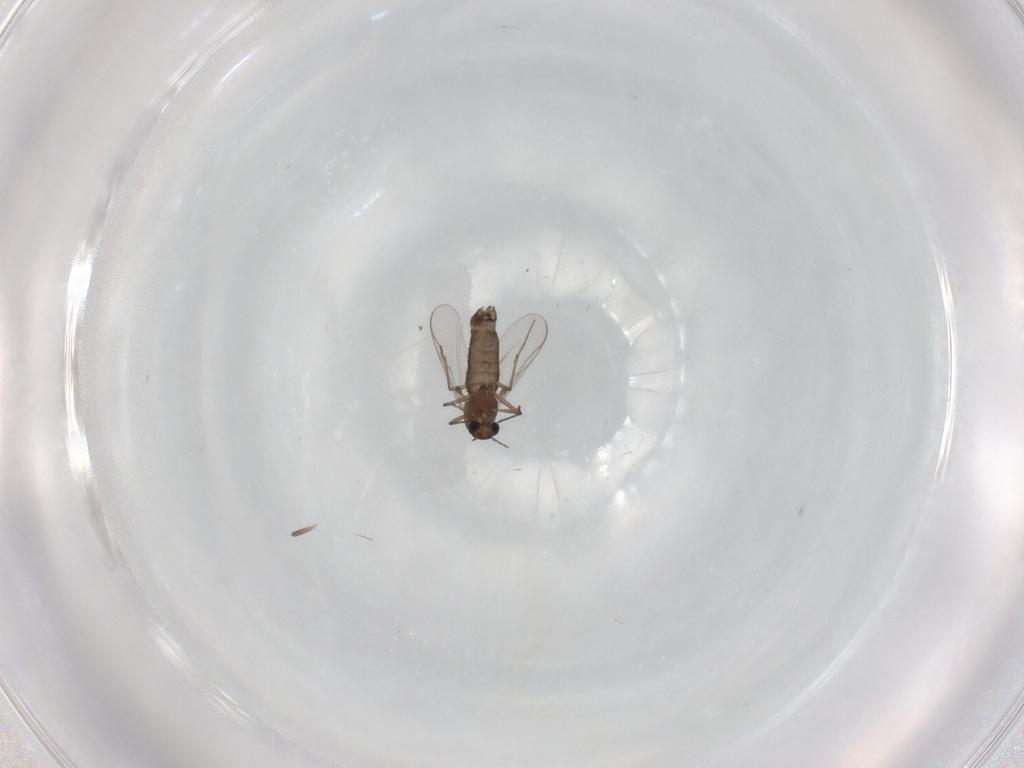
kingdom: Animalia
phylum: Arthropoda
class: Insecta
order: Diptera
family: Chironomidae
